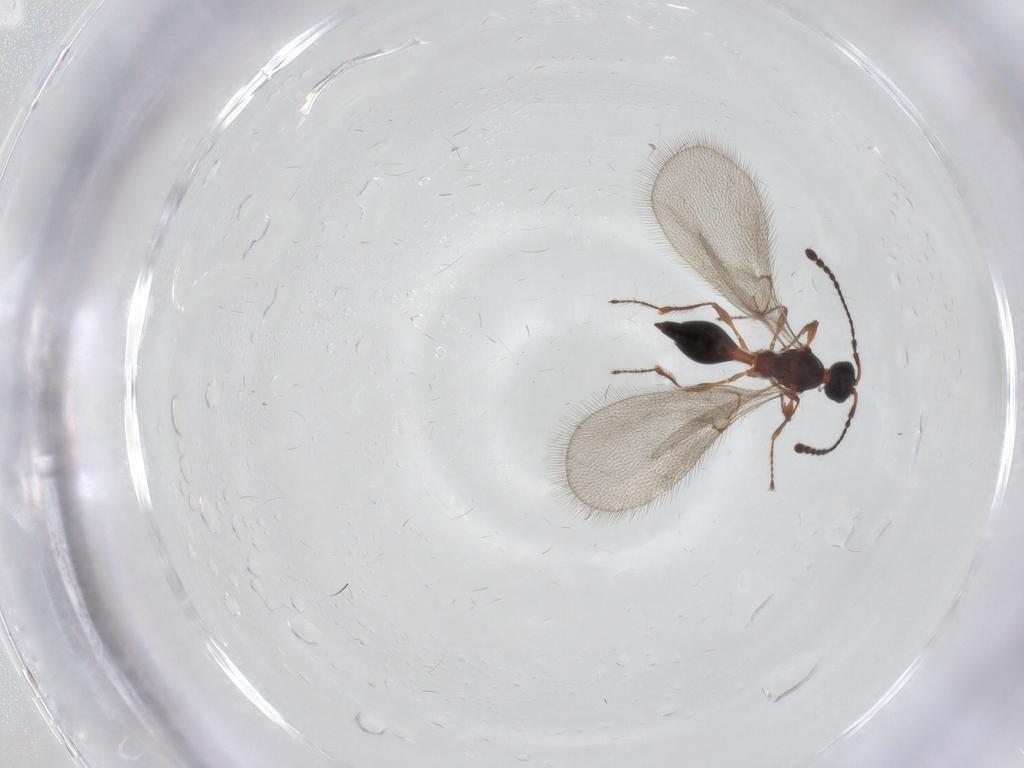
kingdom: Animalia
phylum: Arthropoda
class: Insecta
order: Hymenoptera
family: Diapriidae
